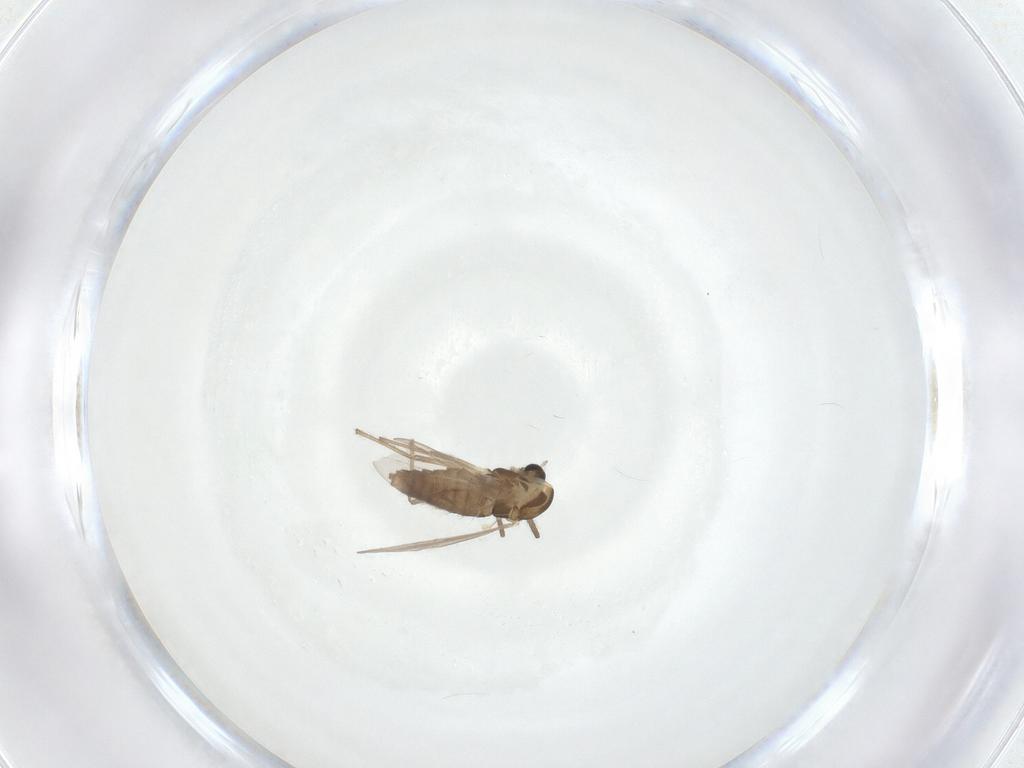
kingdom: Animalia
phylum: Arthropoda
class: Insecta
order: Diptera
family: Chironomidae
